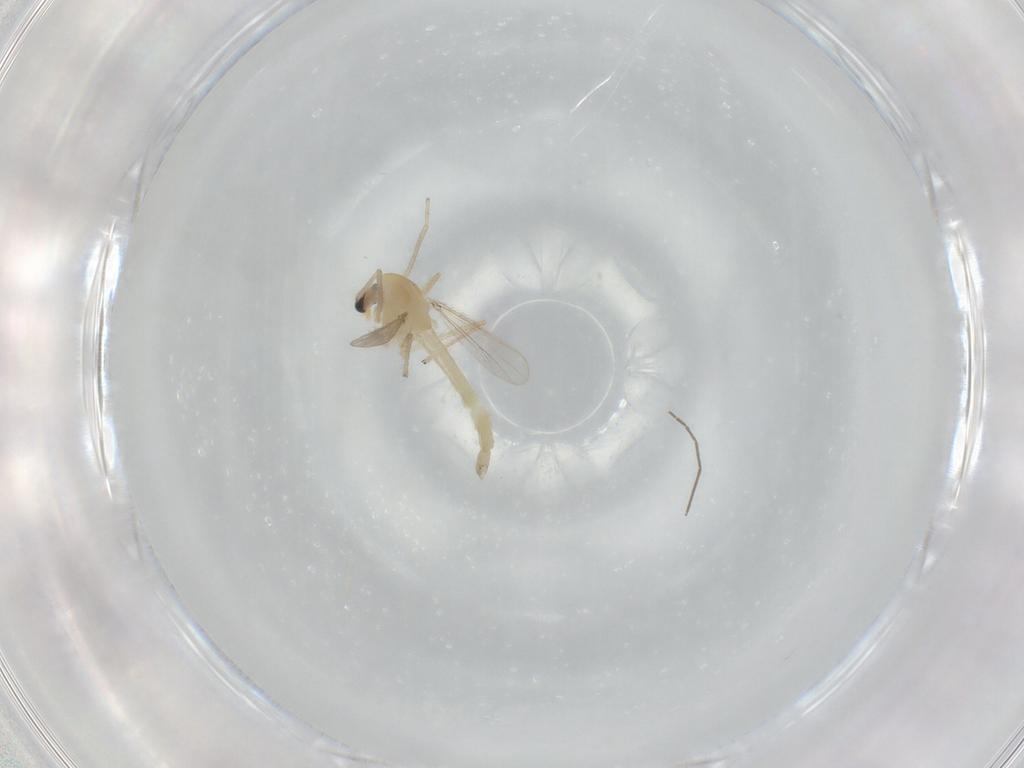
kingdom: Animalia
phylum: Arthropoda
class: Insecta
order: Diptera
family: Chironomidae
